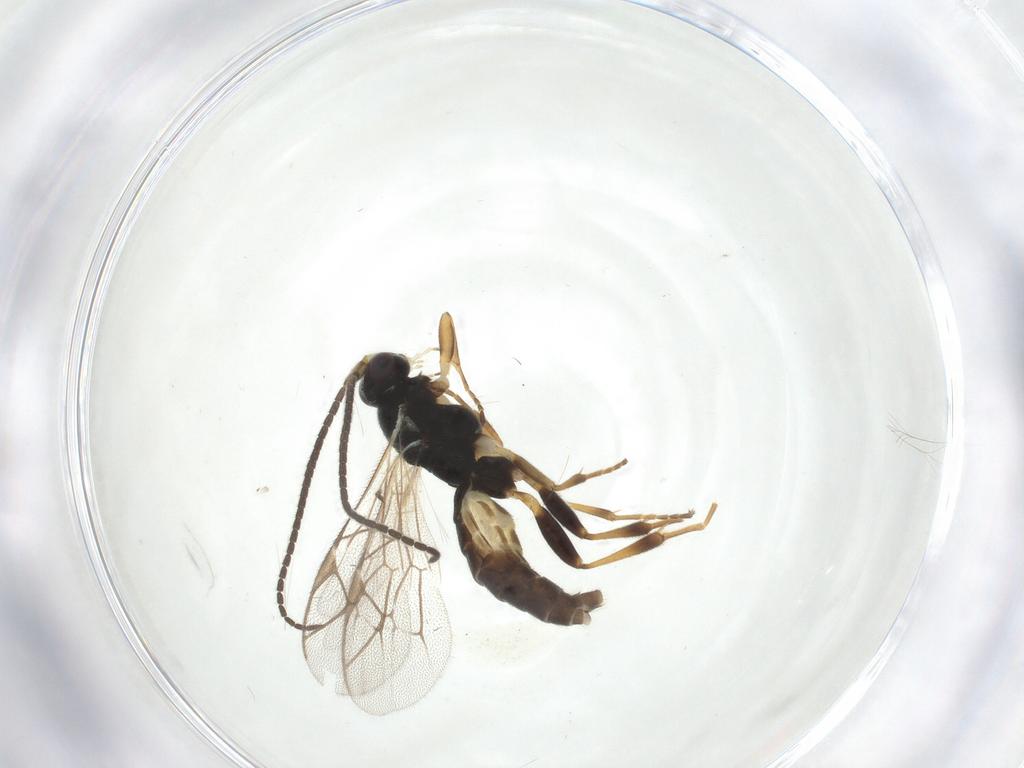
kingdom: Animalia
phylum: Arthropoda
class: Insecta
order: Hymenoptera
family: Ichneumonidae
